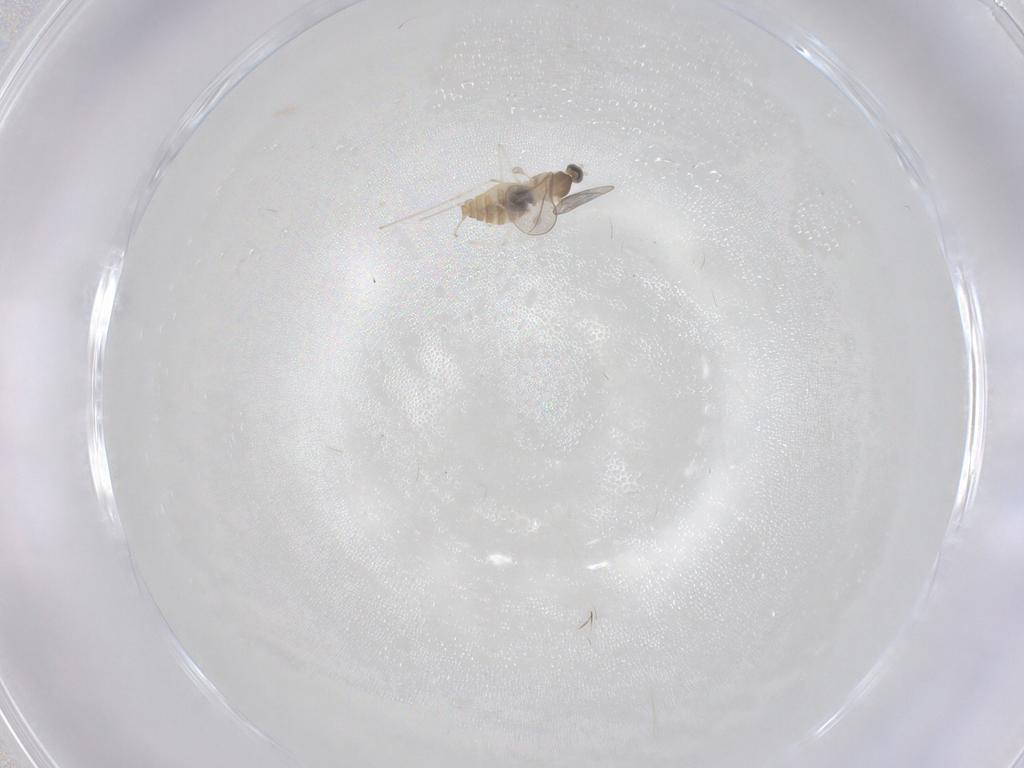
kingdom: Animalia
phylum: Arthropoda
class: Insecta
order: Diptera
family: Cecidomyiidae
